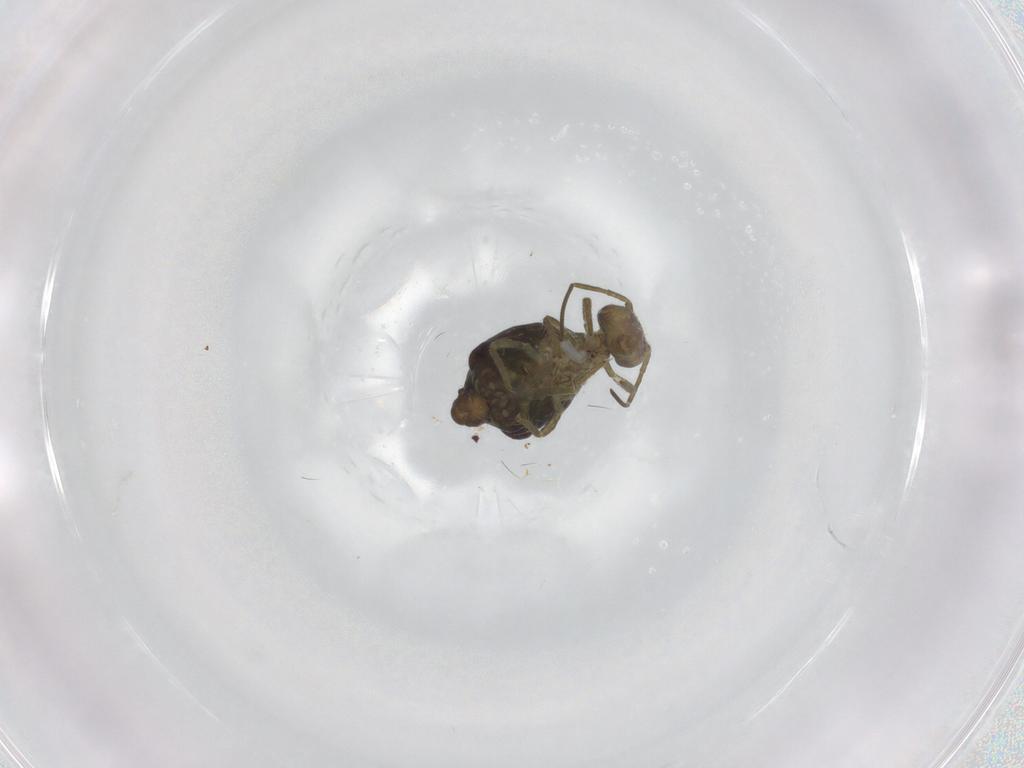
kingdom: Animalia
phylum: Arthropoda
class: Collembola
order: Symphypleona
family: Sminthuridae
